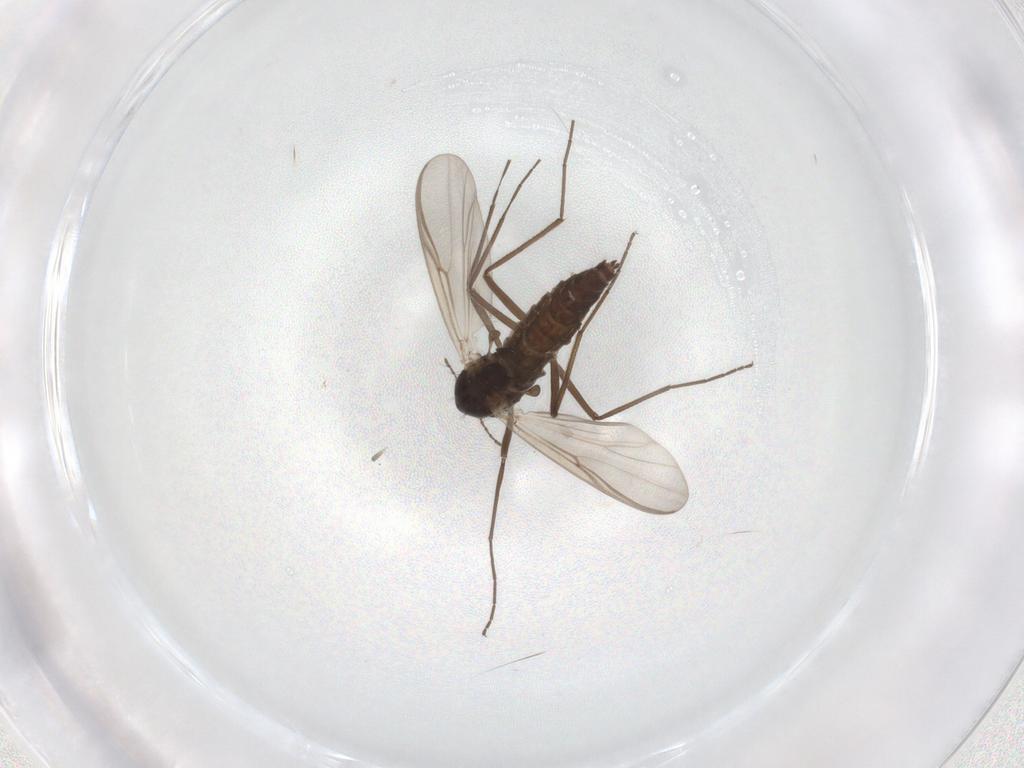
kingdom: Animalia
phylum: Arthropoda
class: Insecta
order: Diptera
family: Chironomidae
